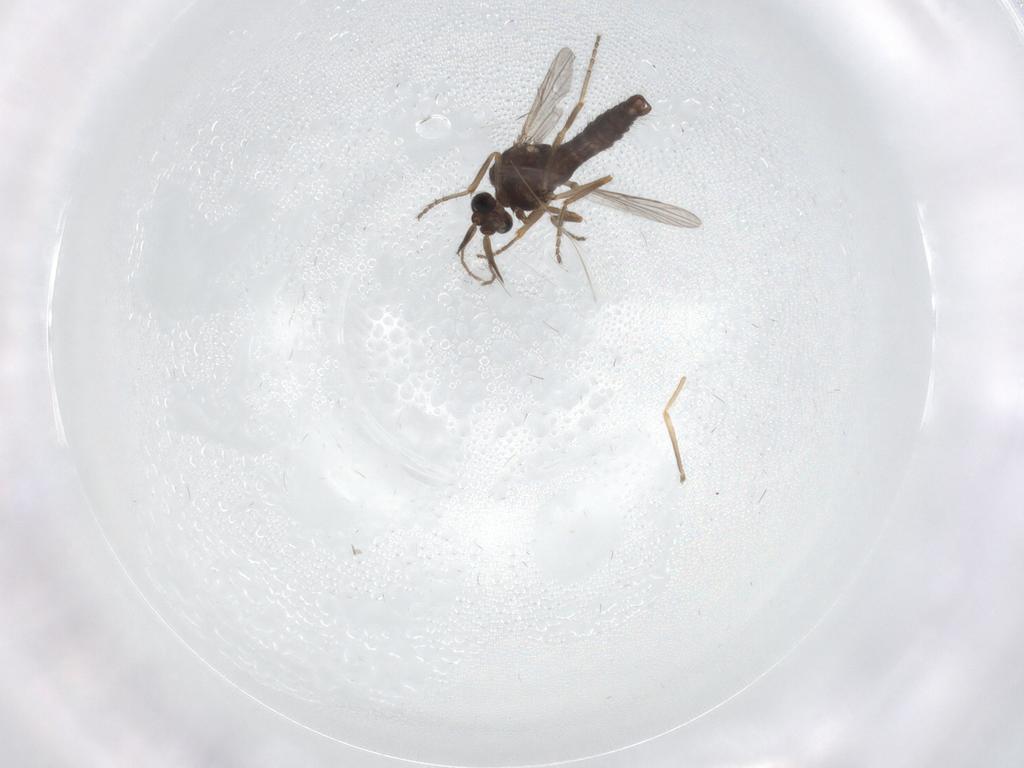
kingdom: Animalia
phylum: Arthropoda
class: Insecta
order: Diptera
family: Ceratopogonidae
